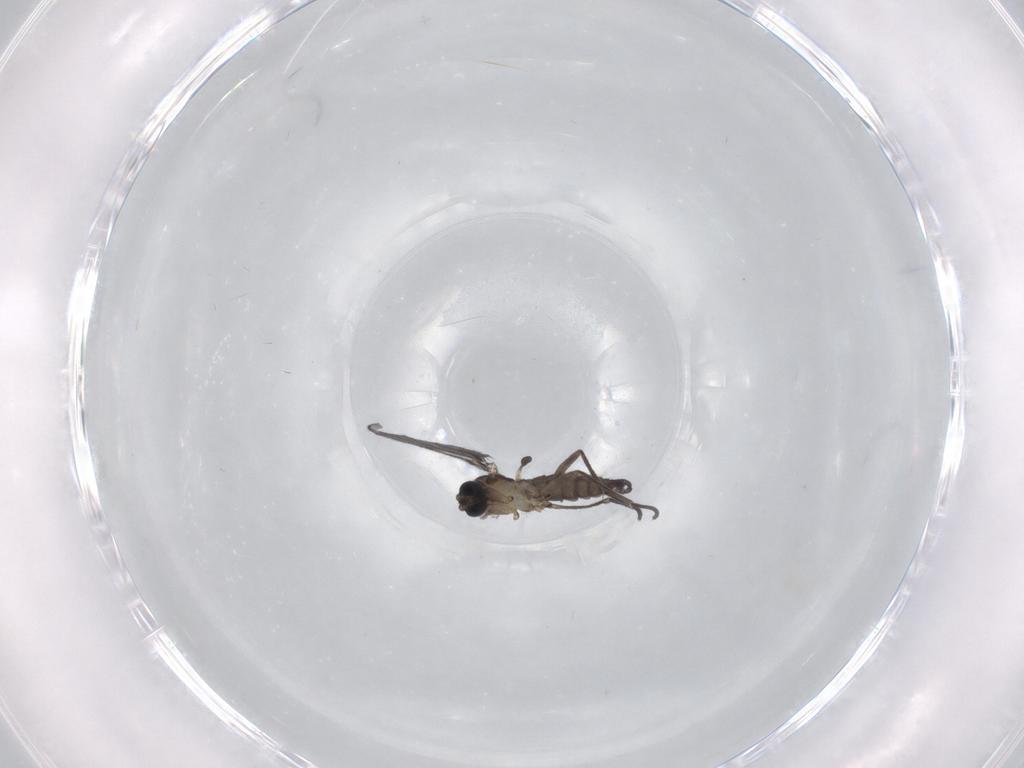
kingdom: Animalia
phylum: Arthropoda
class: Insecta
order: Diptera
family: Sciaridae
